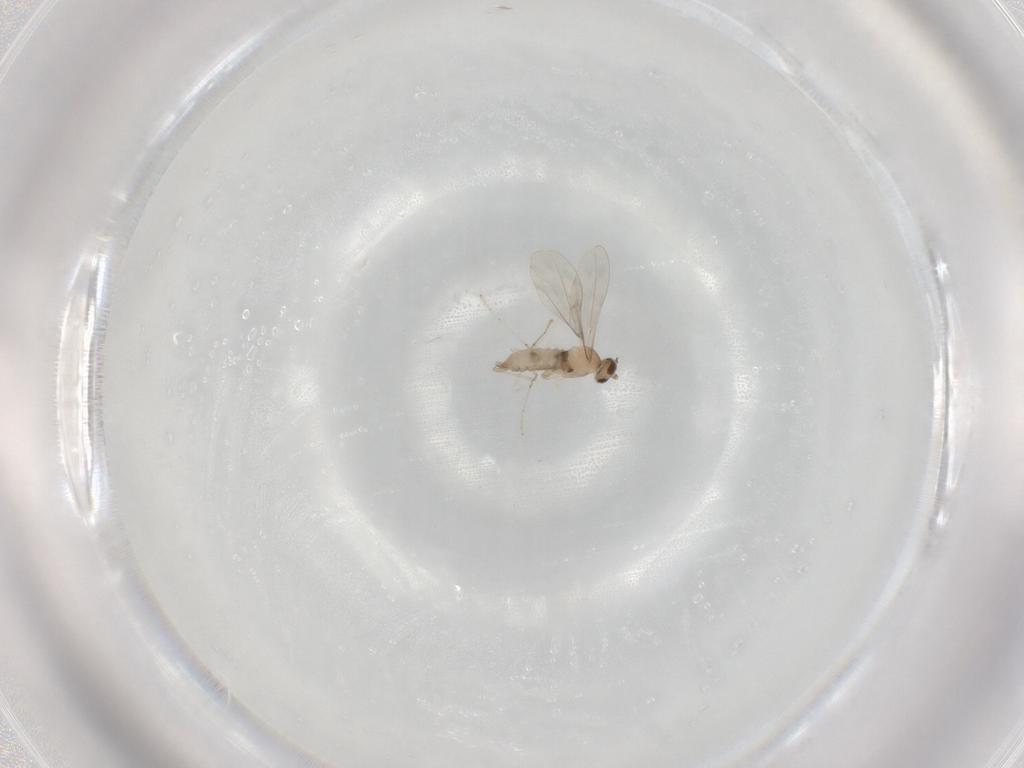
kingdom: Animalia
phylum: Arthropoda
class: Insecta
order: Diptera
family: Cecidomyiidae
